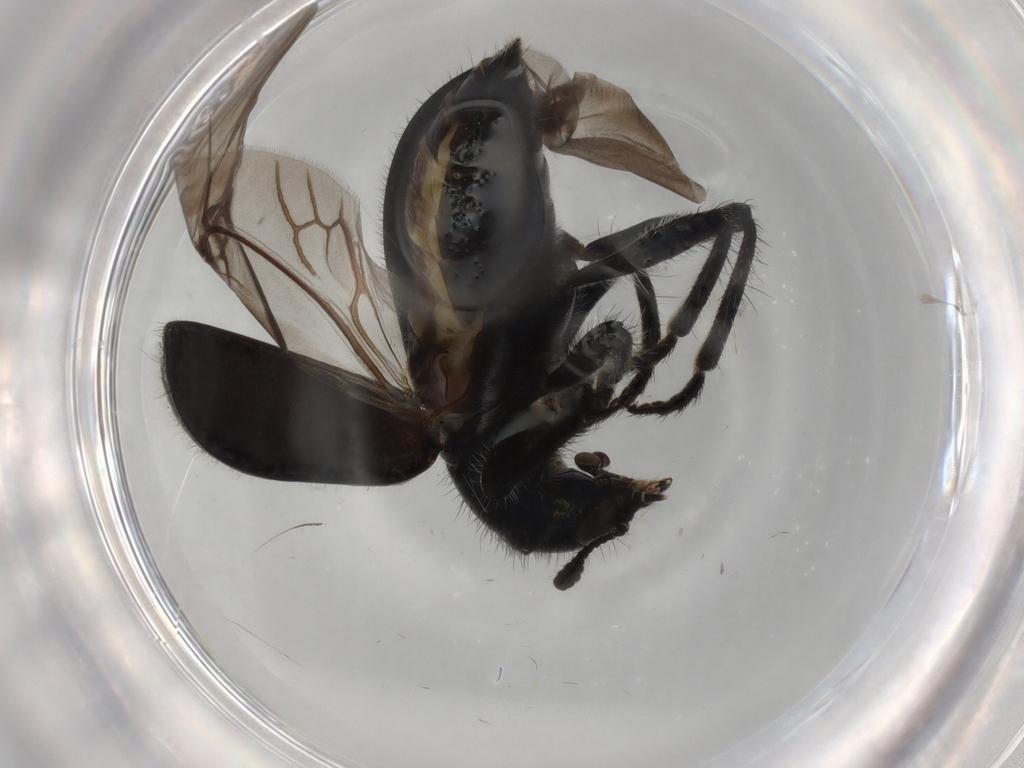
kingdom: Animalia
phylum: Arthropoda
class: Insecta
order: Coleoptera
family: Cleridae
